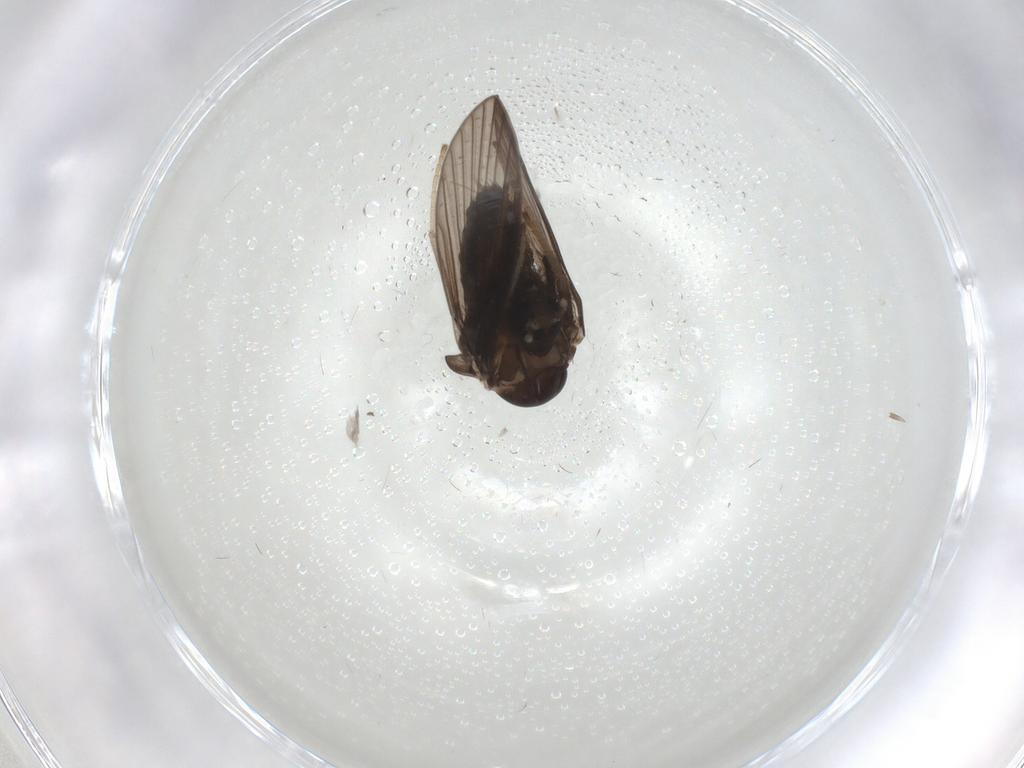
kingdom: Animalia
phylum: Arthropoda
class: Insecta
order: Diptera
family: Psychodidae
